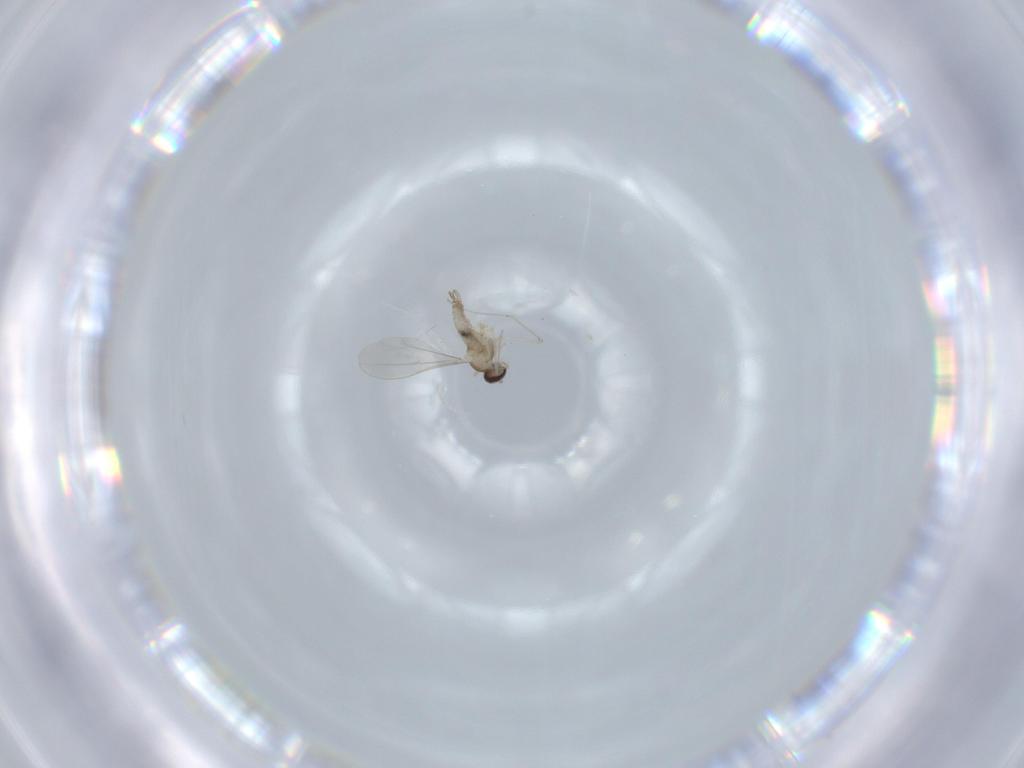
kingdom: Animalia
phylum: Arthropoda
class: Insecta
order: Diptera
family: Cecidomyiidae
